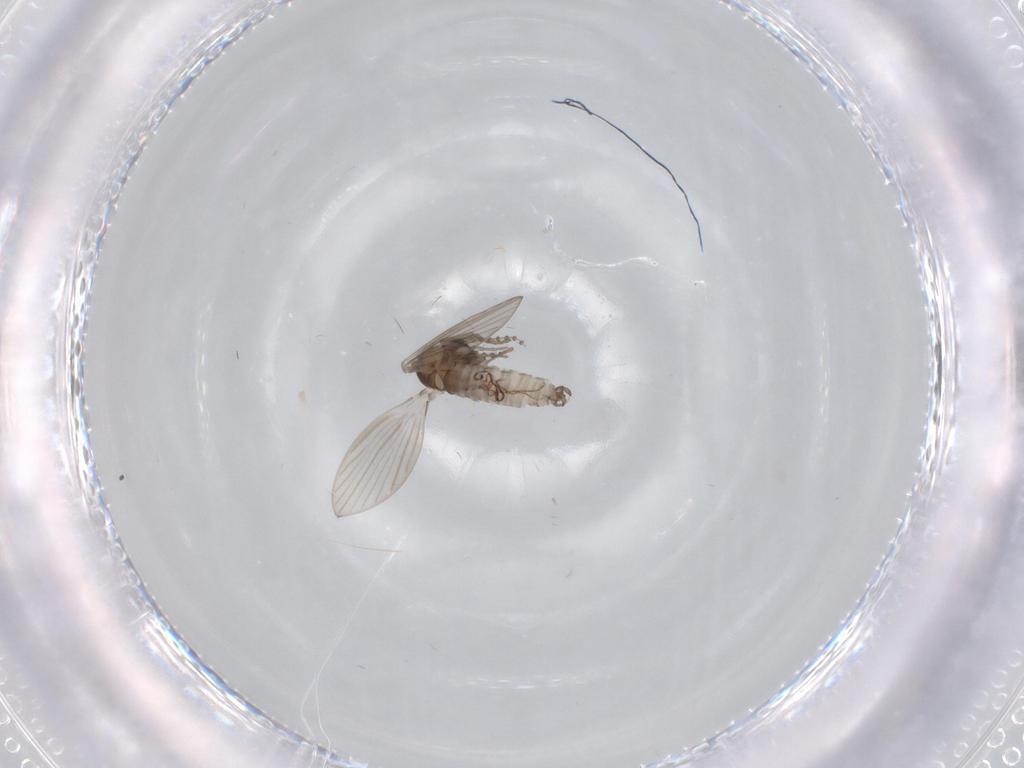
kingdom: Animalia
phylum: Arthropoda
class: Insecta
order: Diptera
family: Psychodidae
